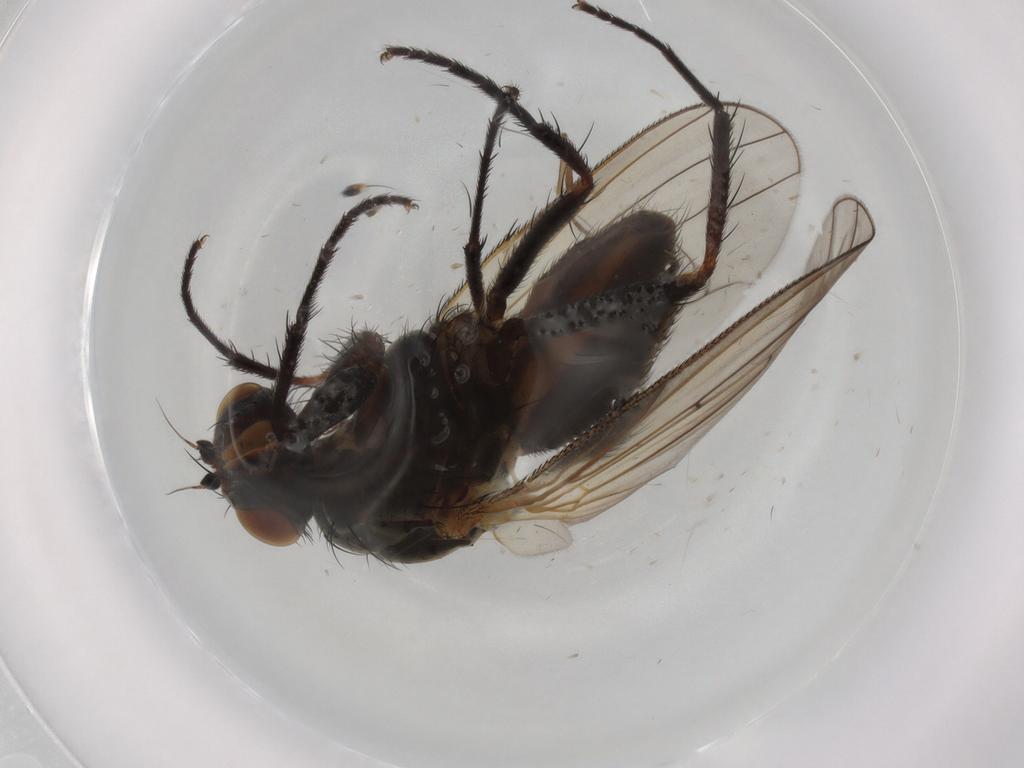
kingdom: Animalia
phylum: Arthropoda
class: Insecta
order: Diptera
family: Anthomyiidae
